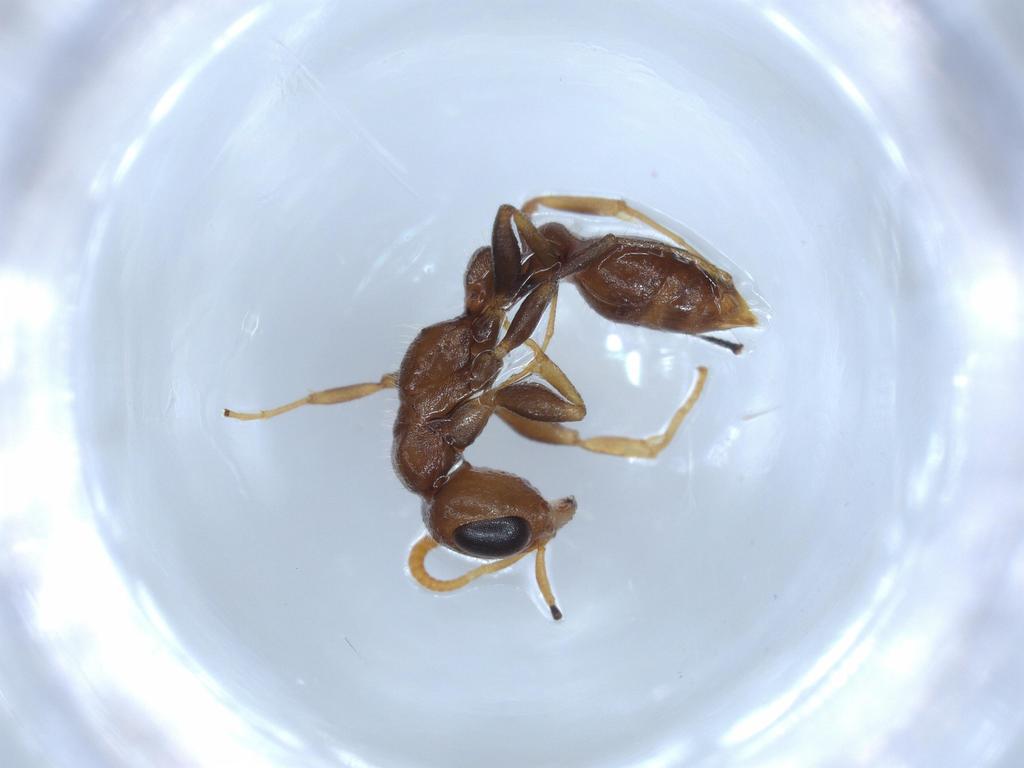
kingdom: Animalia
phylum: Arthropoda
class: Insecta
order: Hymenoptera
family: Formicidae
